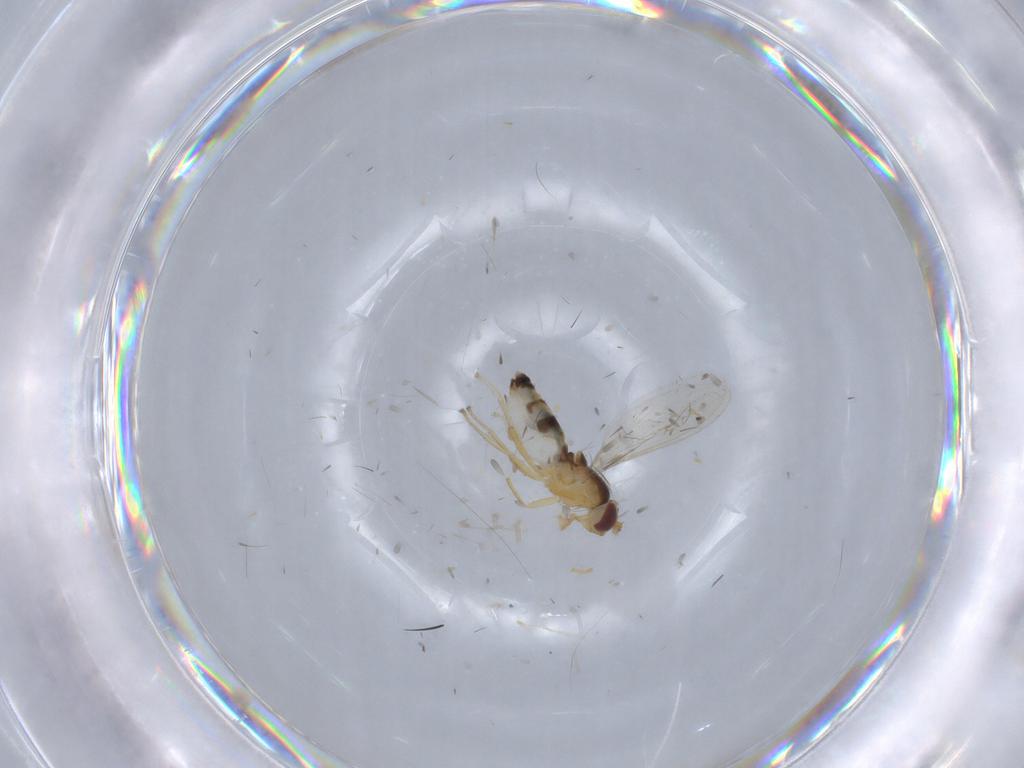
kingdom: Animalia
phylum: Arthropoda
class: Insecta
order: Diptera
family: Periscelididae
